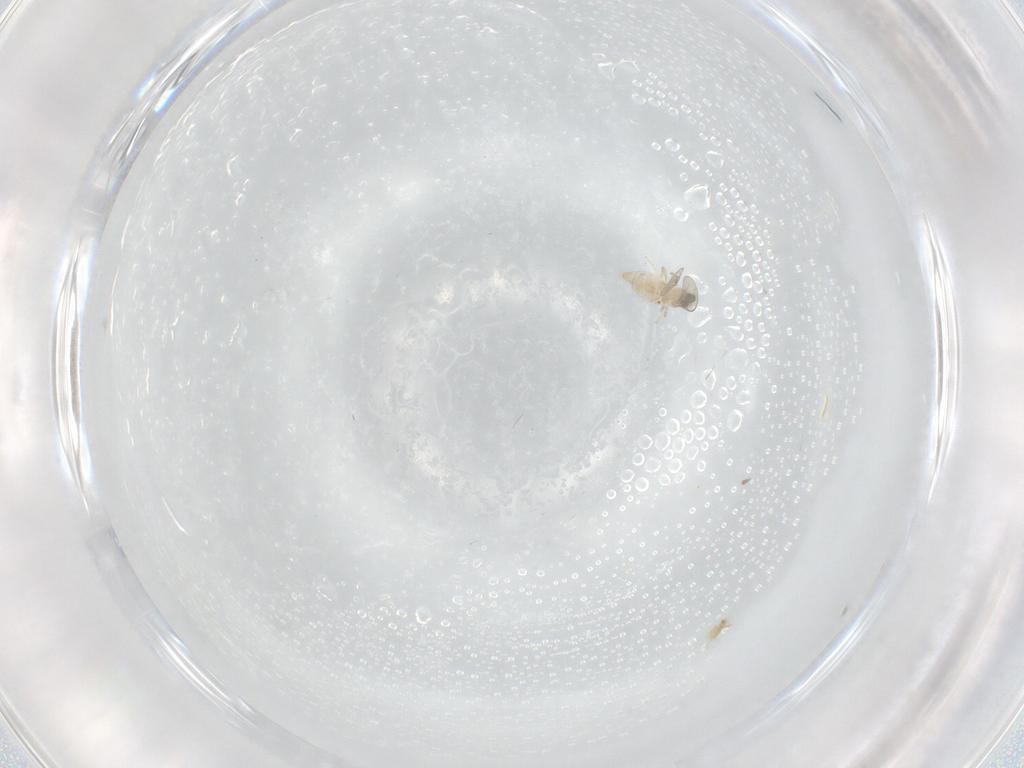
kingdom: Animalia
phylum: Arthropoda
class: Insecta
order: Diptera
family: Cecidomyiidae
